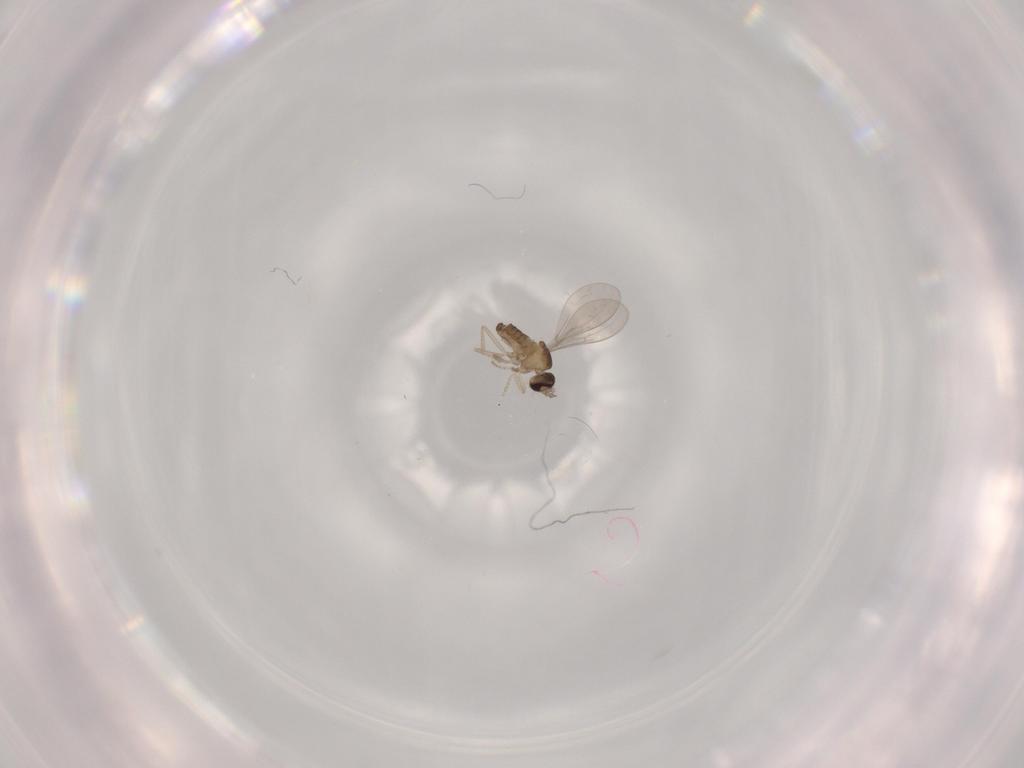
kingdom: Animalia
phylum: Arthropoda
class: Insecta
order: Diptera
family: Cecidomyiidae
